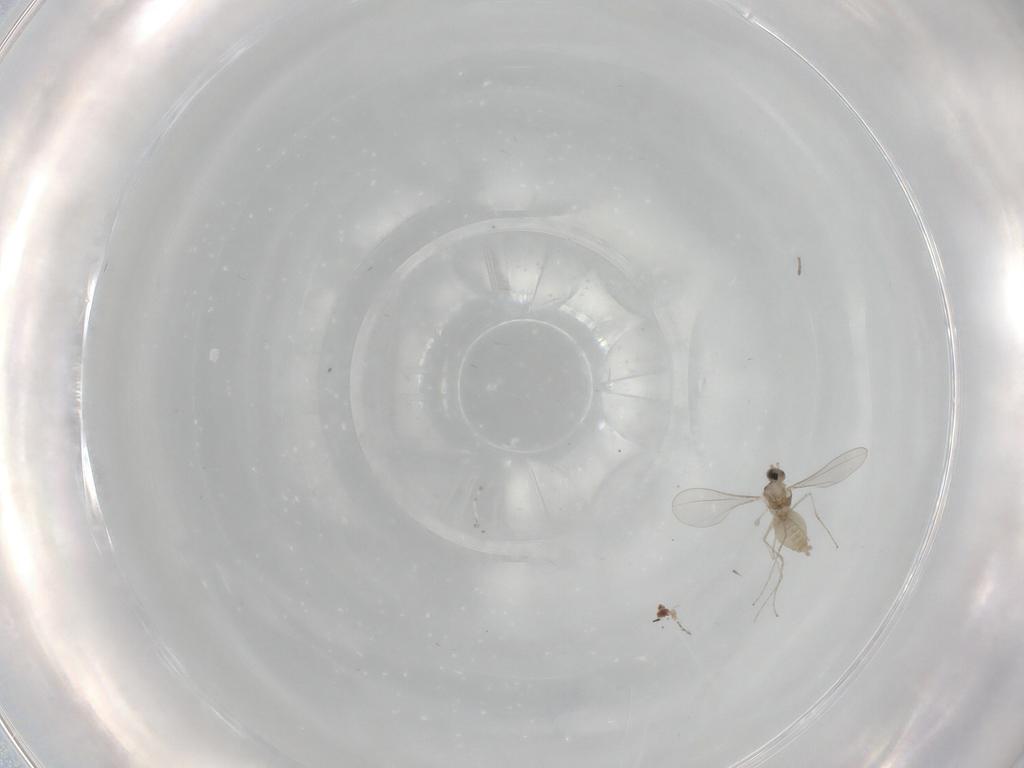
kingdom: Animalia
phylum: Arthropoda
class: Insecta
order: Diptera
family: Cecidomyiidae
